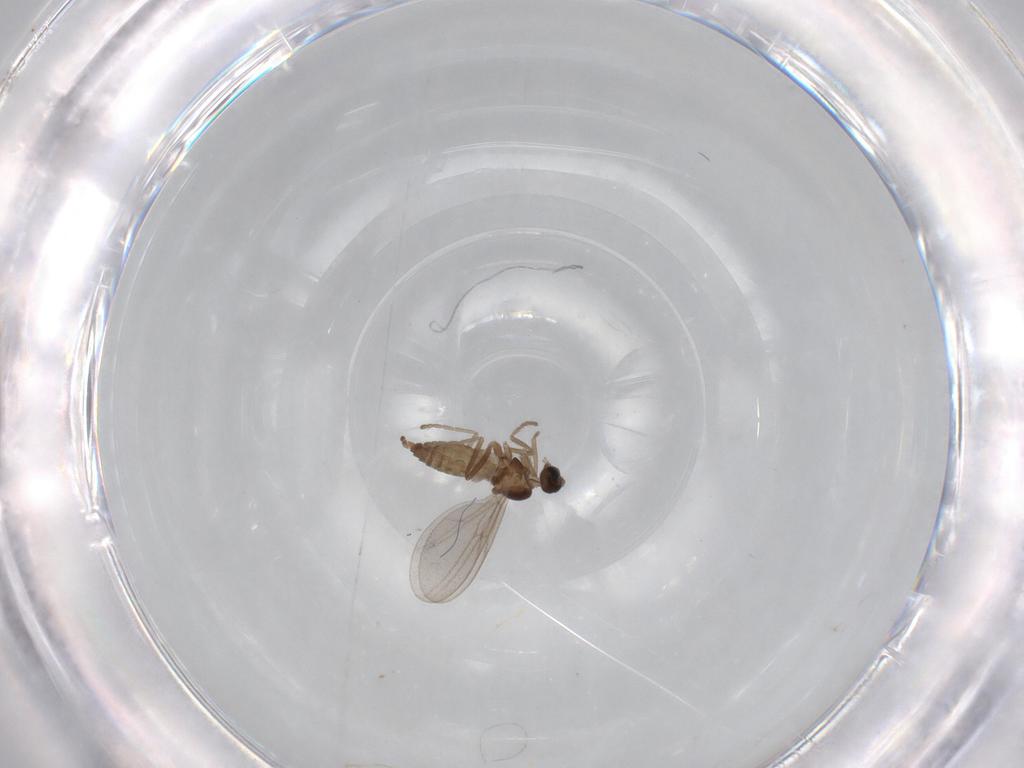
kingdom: Animalia
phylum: Arthropoda
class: Insecta
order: Diptera
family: Cecidomyiidae
